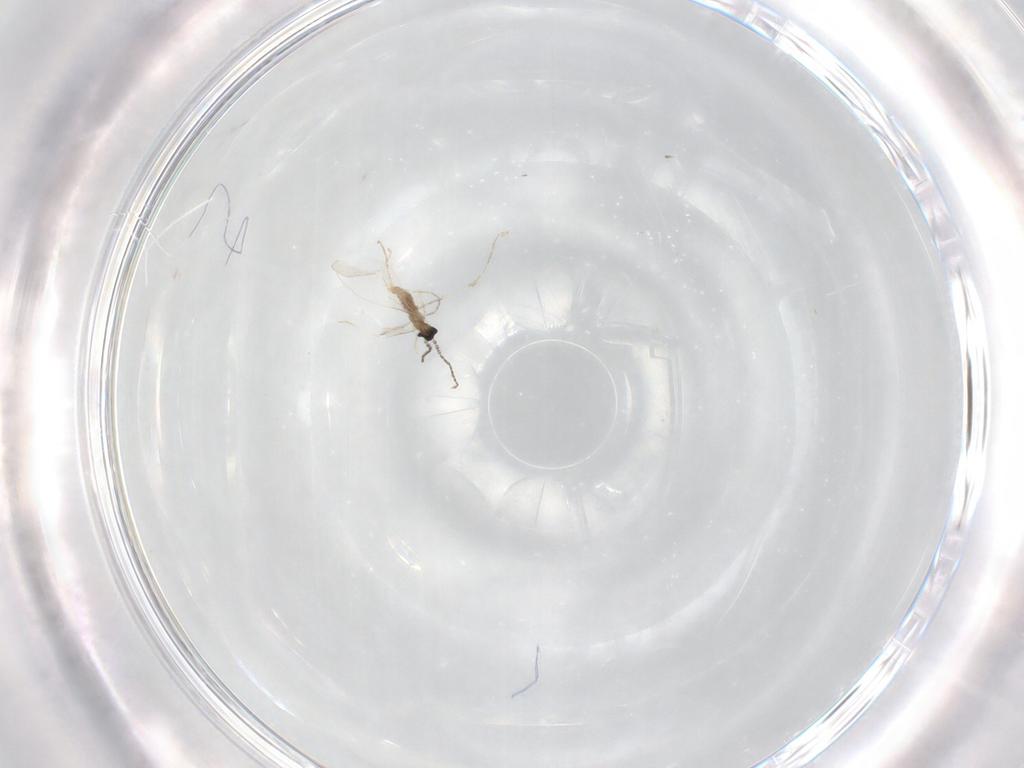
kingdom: Animalia
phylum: Arthropoda
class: Insecta
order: Diptera
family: Cecidomyiidae
